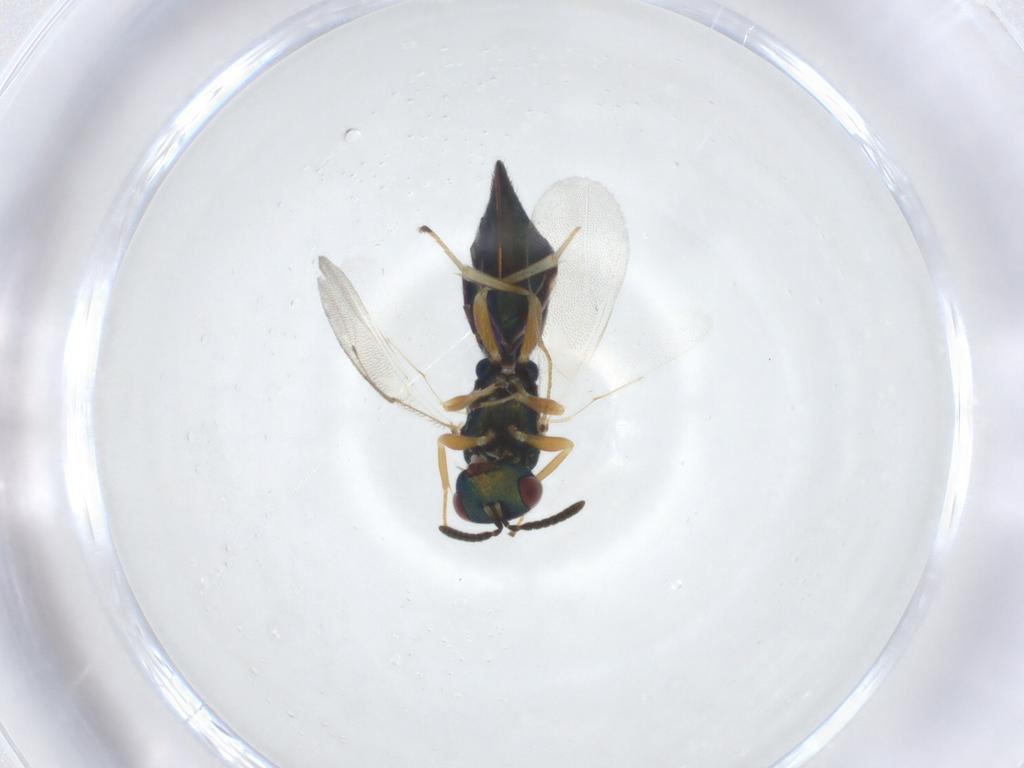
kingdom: Animalia
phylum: Arthropoda
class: Insecta
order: Hymenoptera
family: Pteromalidae
